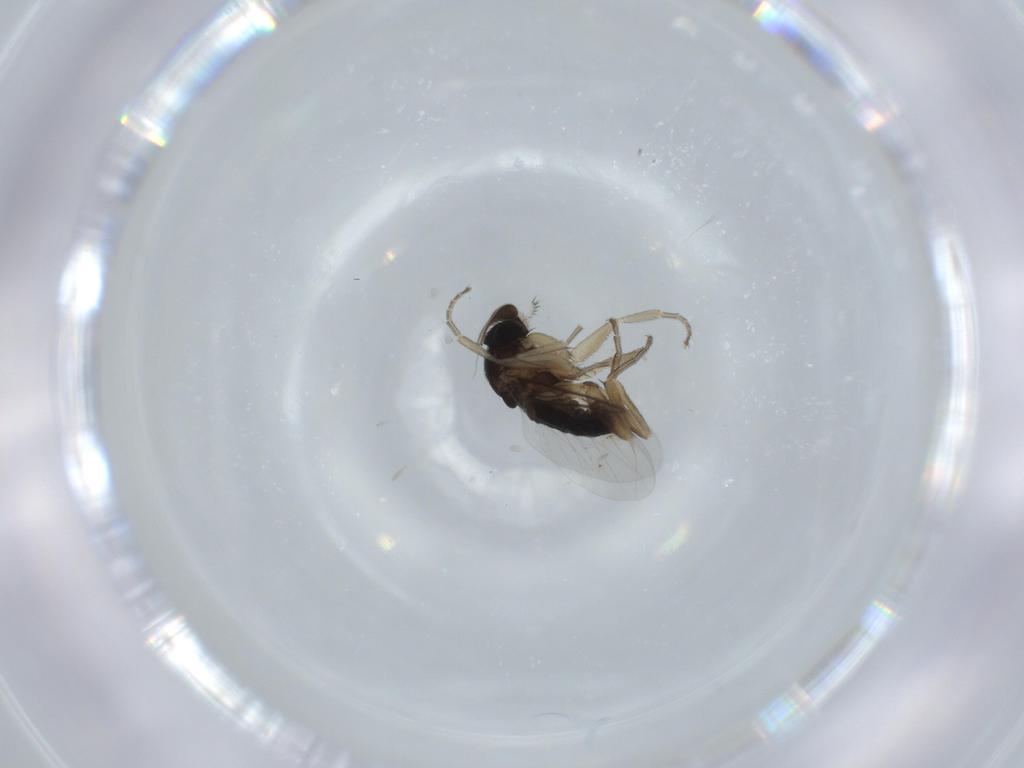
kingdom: Animalia
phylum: Arthropoda
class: Insecta
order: Diptera
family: Phoridae
